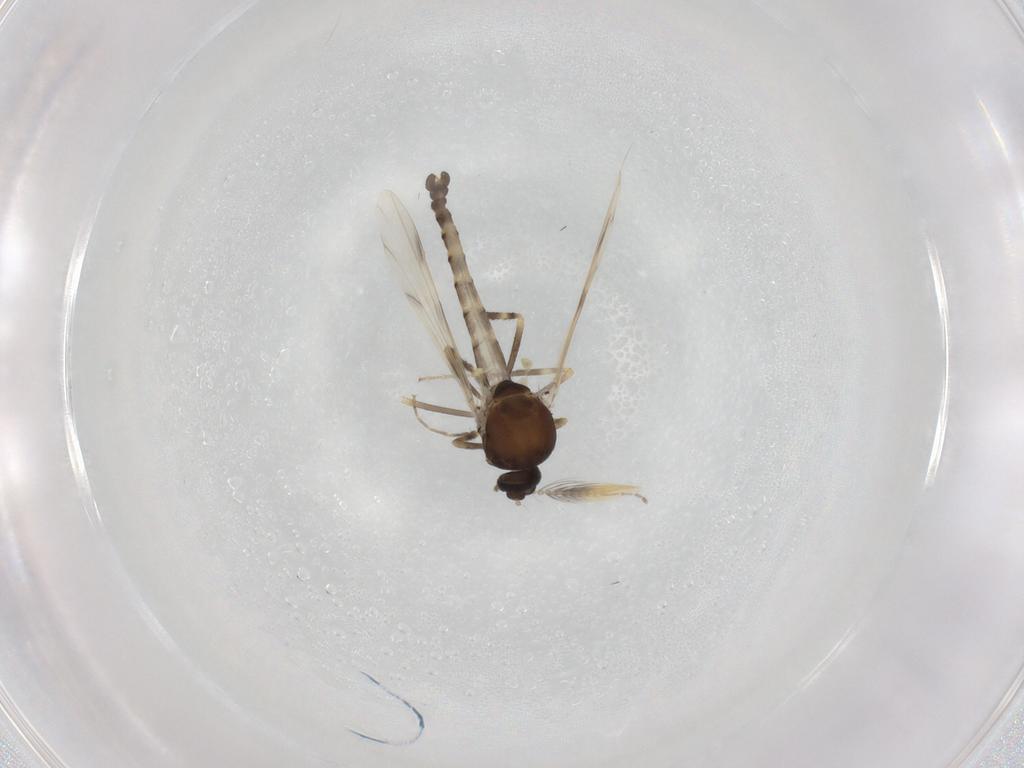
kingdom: Animalia
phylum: Arthropoda
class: Insecta
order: Diptera
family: Ceratopogonidae
